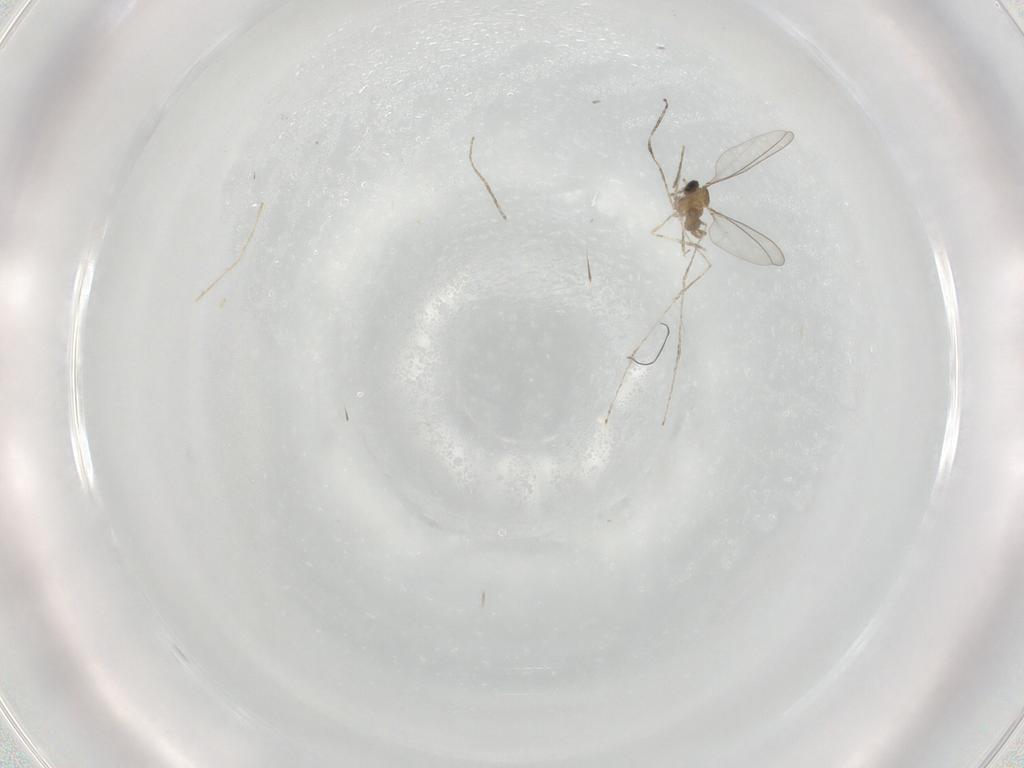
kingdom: Animalia
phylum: Arthropoda
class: Insecta
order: Diptera
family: Cecidomyiidae
